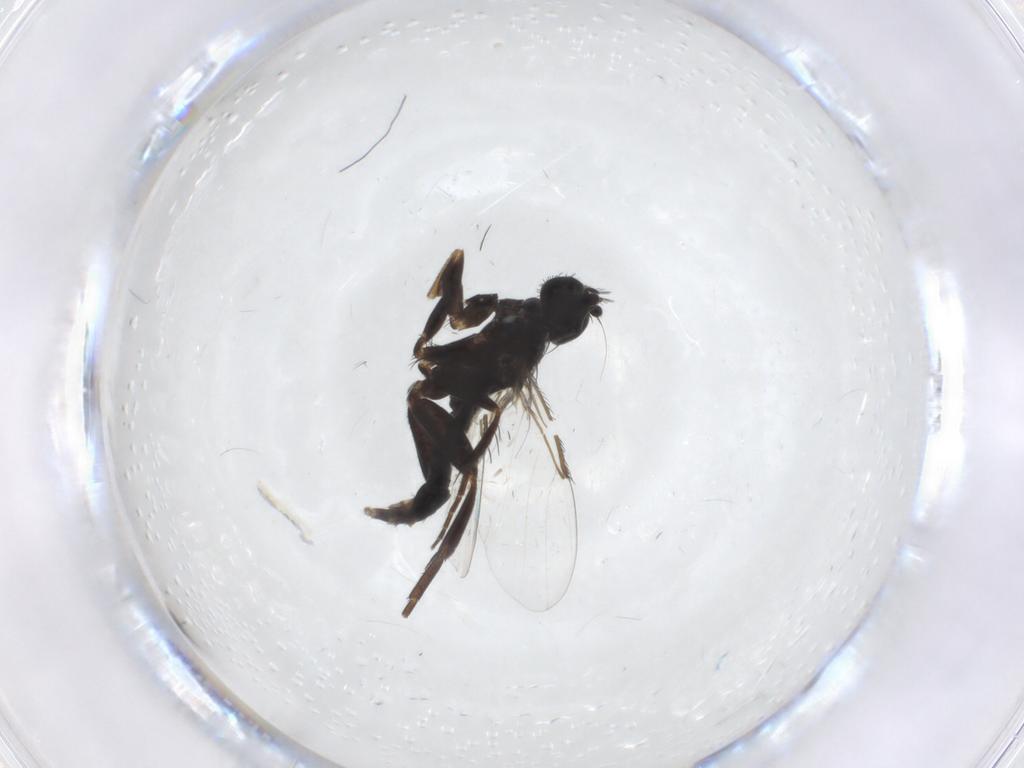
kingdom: Animalia
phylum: Arthropoda
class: Insecta
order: Diptera
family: Phoridae
